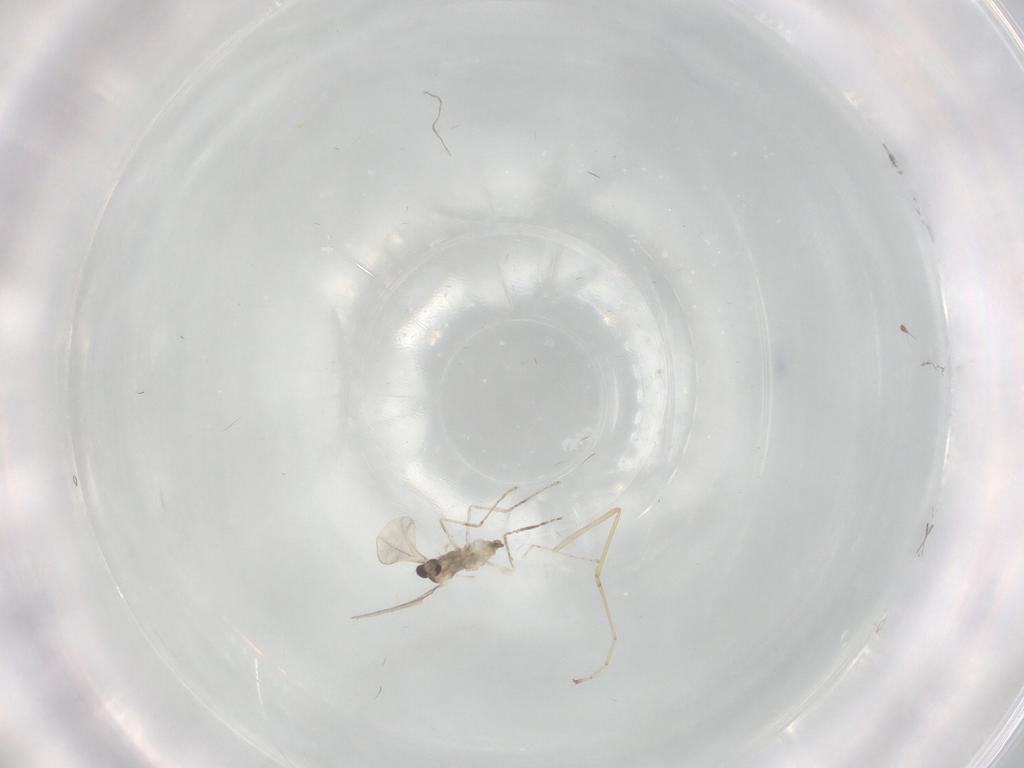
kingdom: Animalia
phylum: Arthropoda
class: Insecta
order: Diptera
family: Cecidomyiidae
